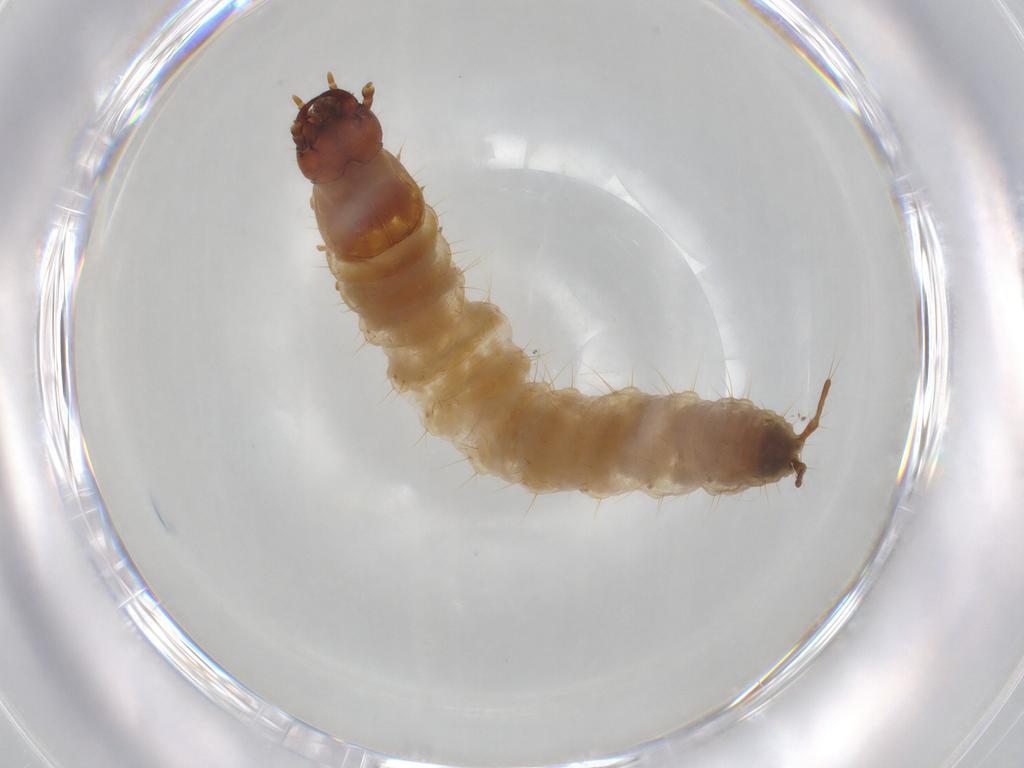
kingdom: Animalia
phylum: Arthropoda
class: Insecta
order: Coleoptera
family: Histeridae
